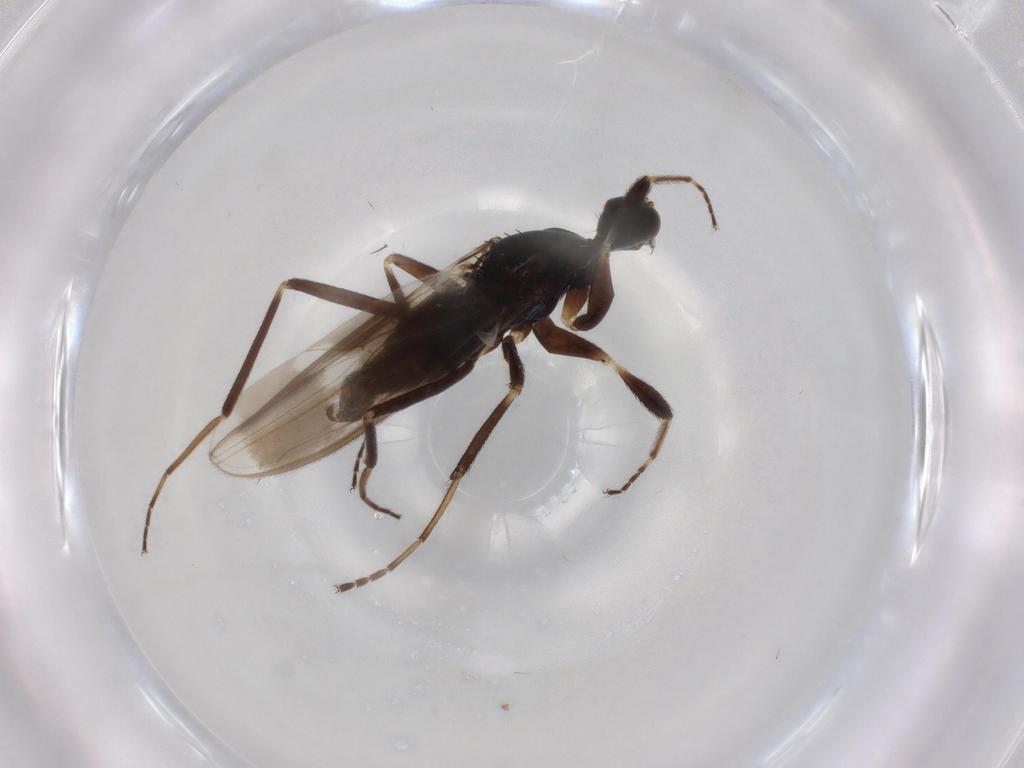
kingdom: Animalia
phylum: Arthropoda
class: Insecta
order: Diptera
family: Hybotidae
